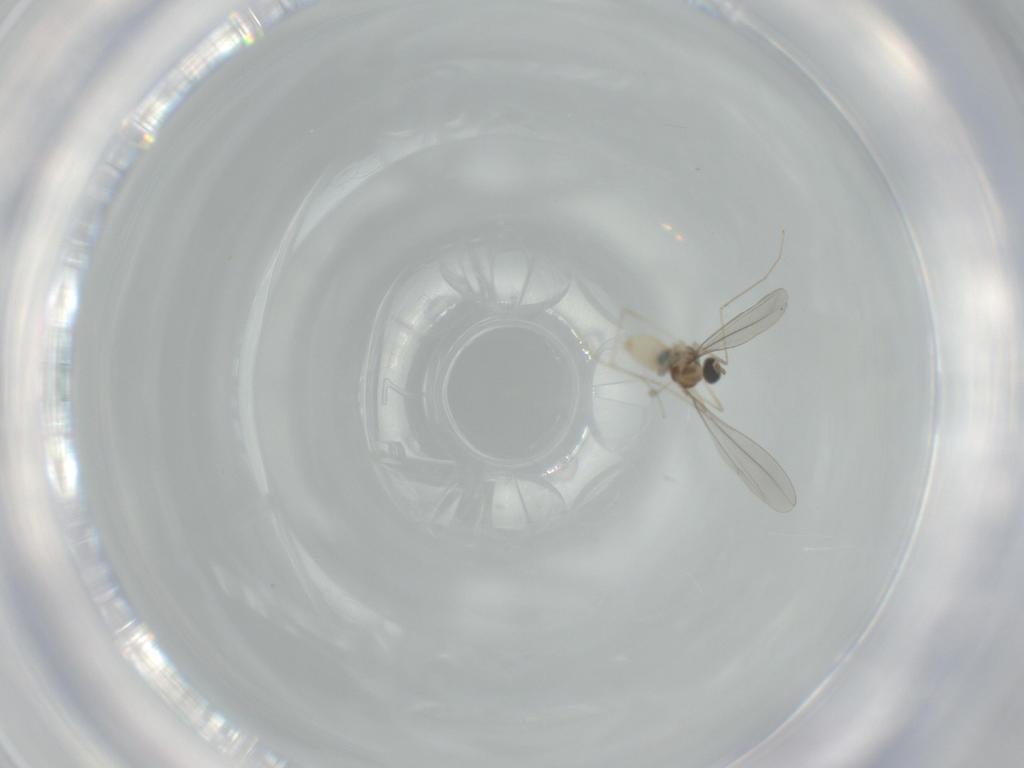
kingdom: Animalia
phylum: Arthropoda
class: Insecta
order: Diptera
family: Cecidomyiidae
